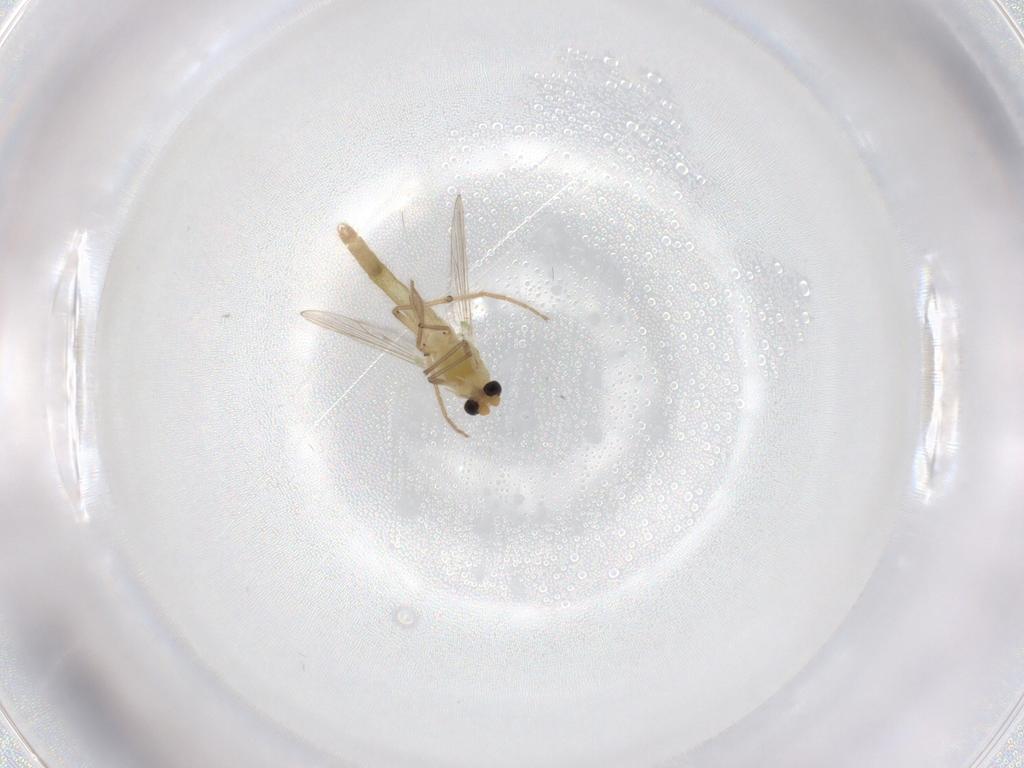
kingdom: Animalia
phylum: Arthropoda
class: Insecta
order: Diptera
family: Chironomidae
